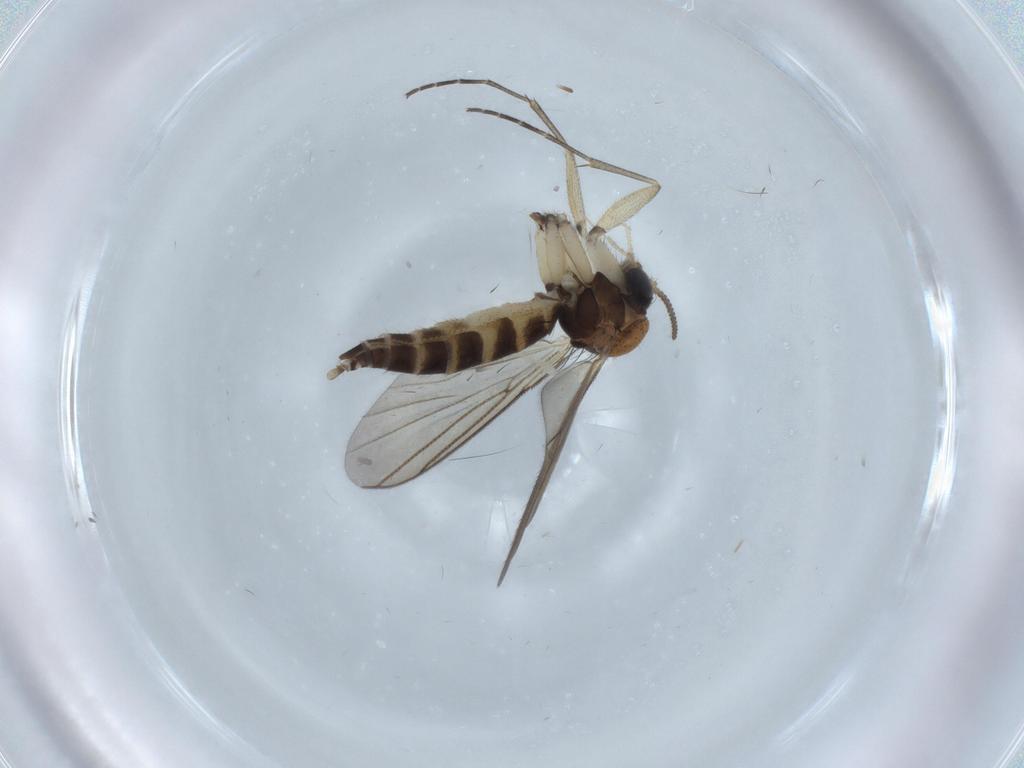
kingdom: Animalia
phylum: Arthropoda
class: Insecta
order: Diptera
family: Mycetophilidae
